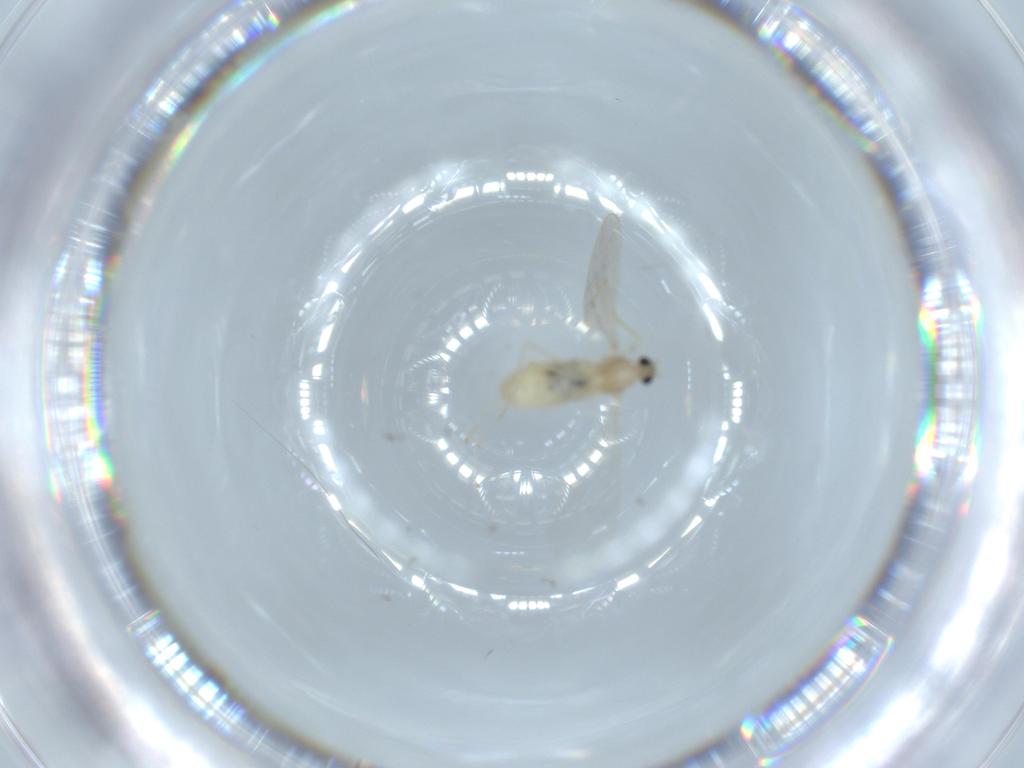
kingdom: Animalia
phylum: Arthropoda
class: Insecta
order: Diptera
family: Cecidomyiidae
